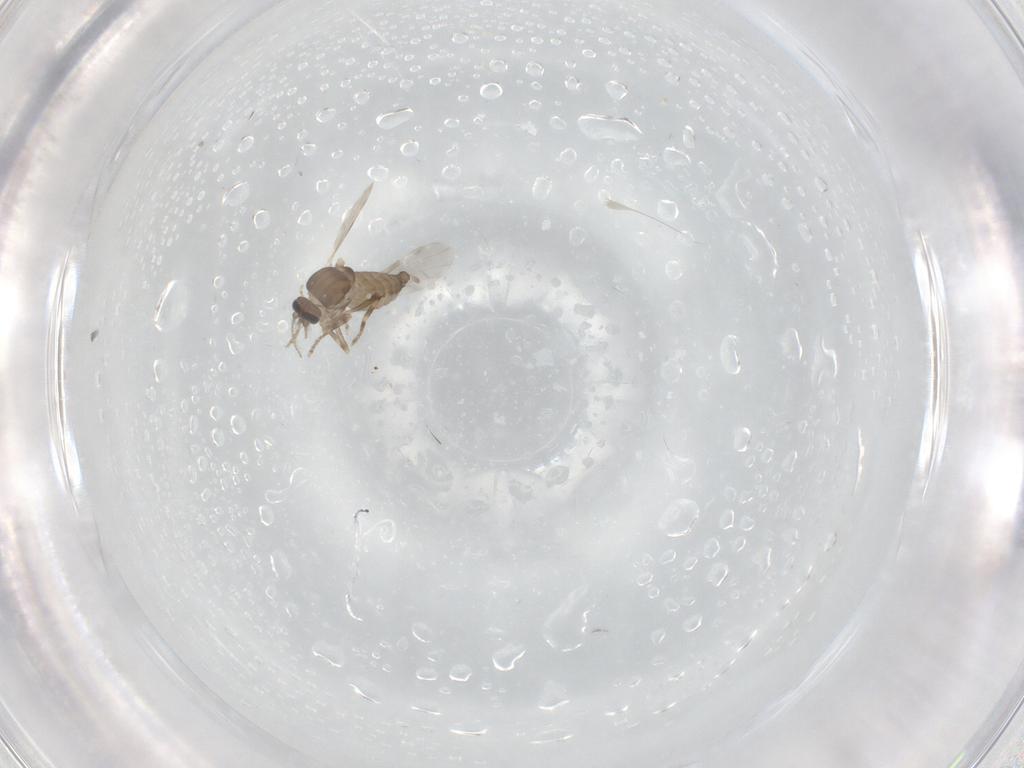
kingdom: Animalia
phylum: Arthropoda
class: Insecta
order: Diptera
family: Ceratopogonidae
